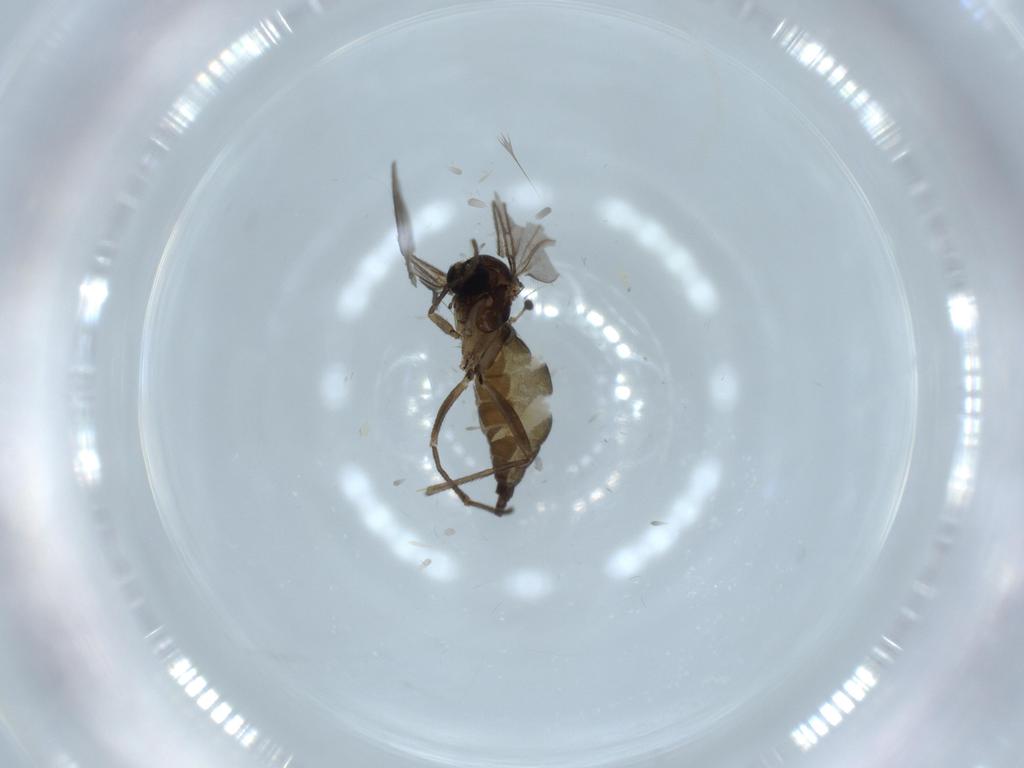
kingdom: Animalia
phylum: Arthropoda
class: Insecta
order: Diptera
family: Sciaridae
